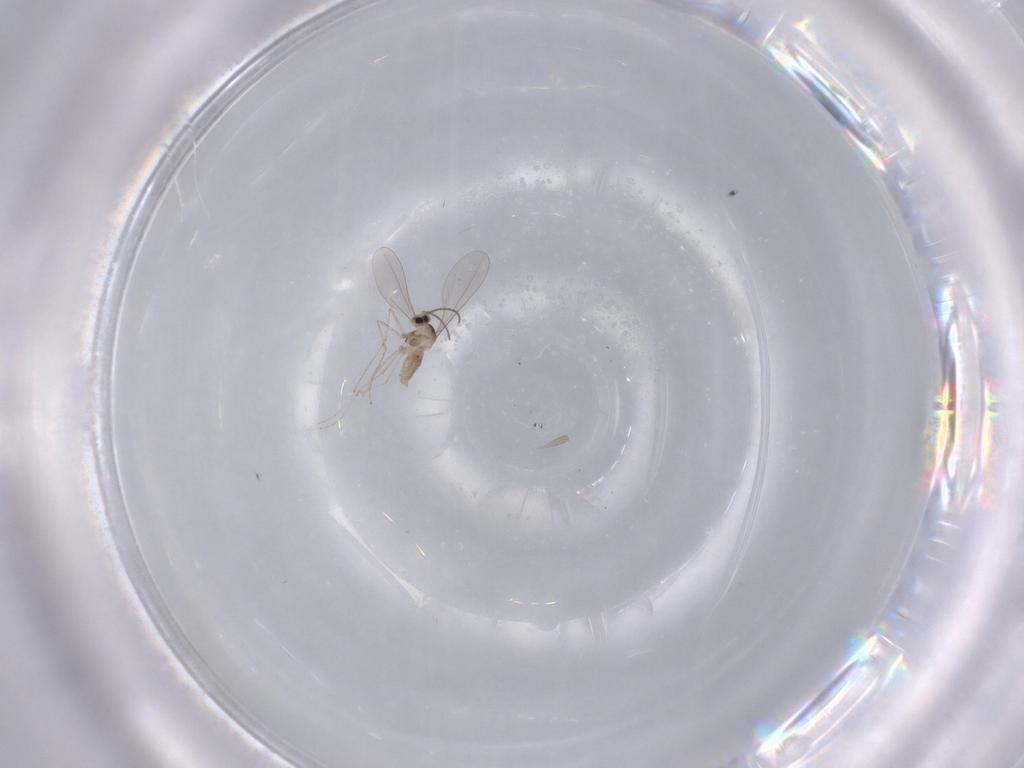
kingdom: Animalia
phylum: Arthropoda
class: Insecta
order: Diptera
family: Cecidomyiidae
